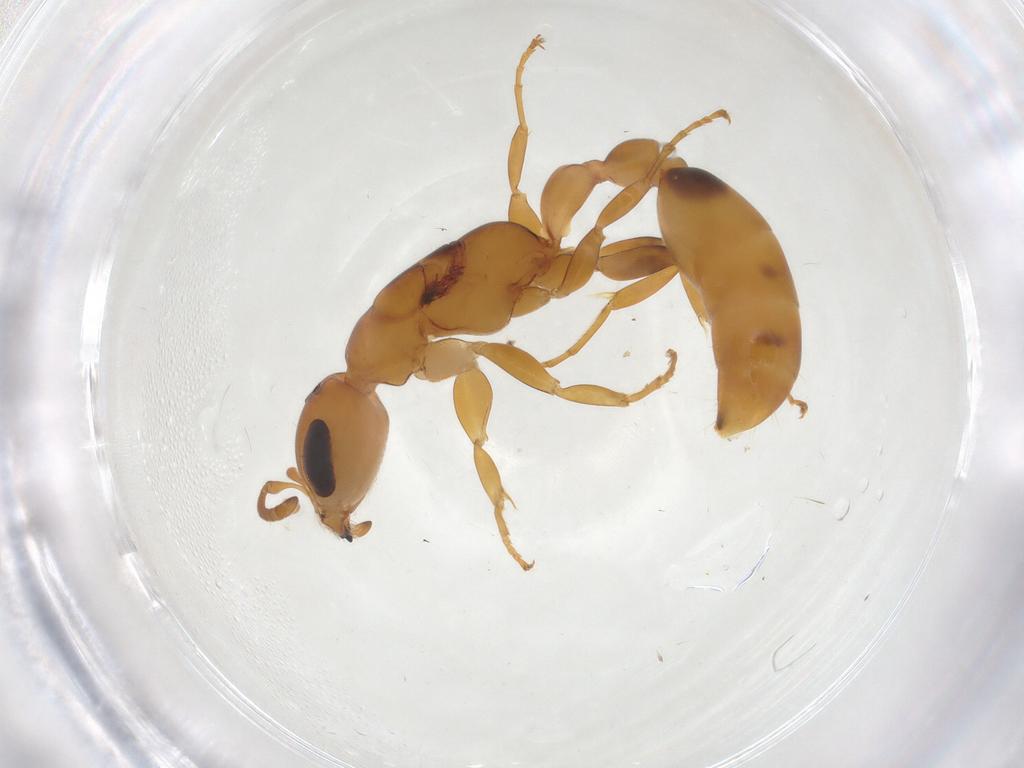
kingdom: Animalia
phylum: Arthropoda
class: Insecta
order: Hymenoptera
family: Formicidae
